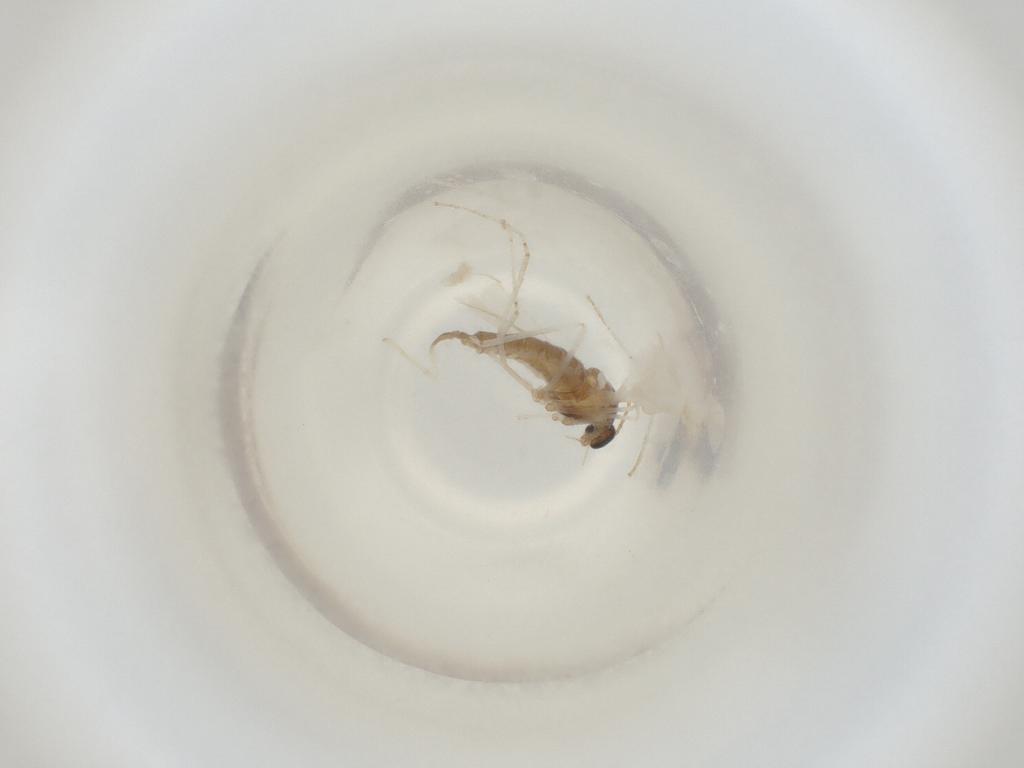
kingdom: Animalia
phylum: Arthropoda
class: Insecta
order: Diptera
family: Cecidomyiidae
